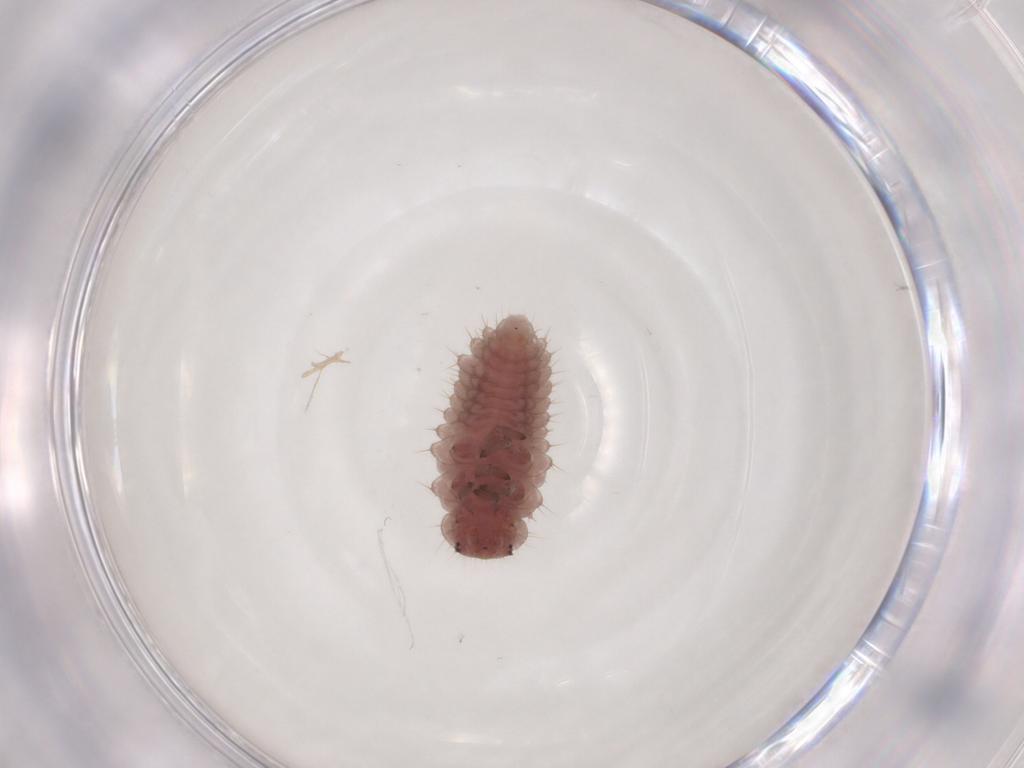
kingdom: Animalia
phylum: Arthropoda
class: Insecta
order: Coleoptera
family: Coccinellidae
